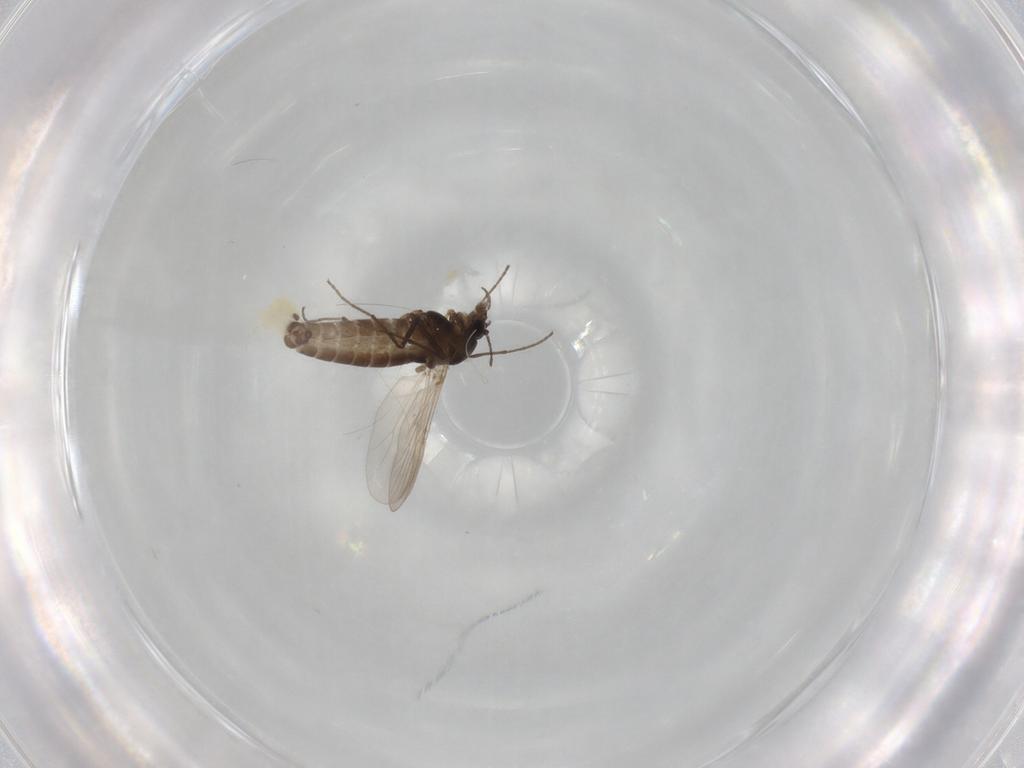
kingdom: Animalia
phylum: Arthropoda
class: Insecta
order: Diptera
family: Chironomidae
